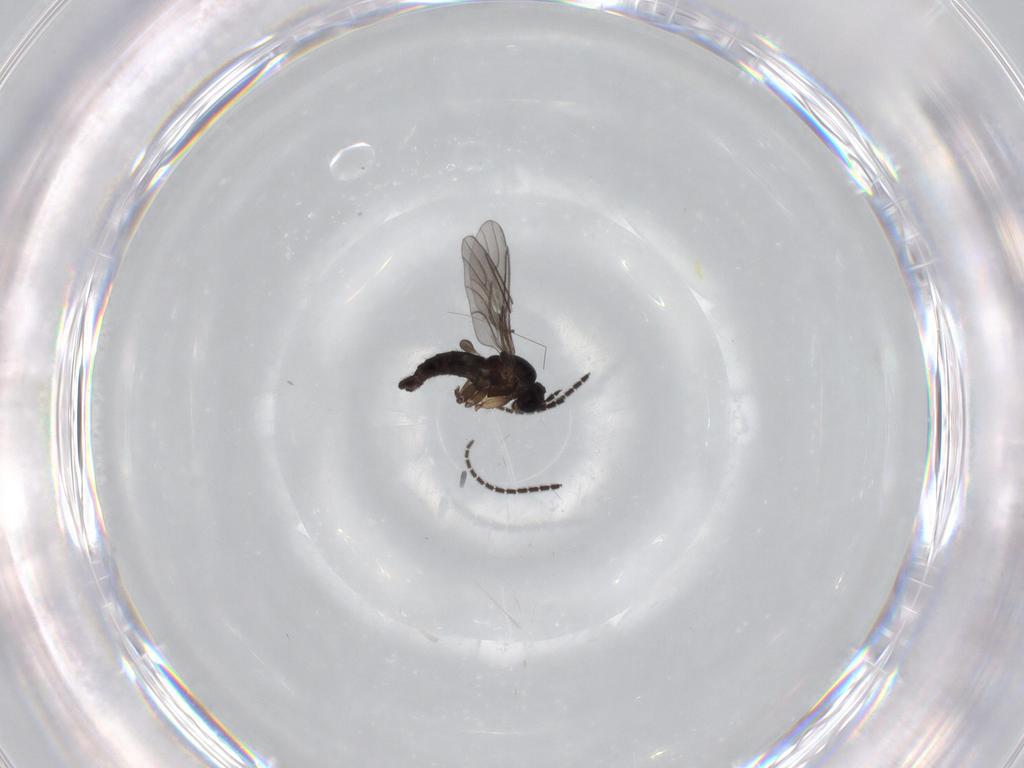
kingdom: Animalia
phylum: Arthropoda
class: Insecta
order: Diptera
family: Sciaridae
